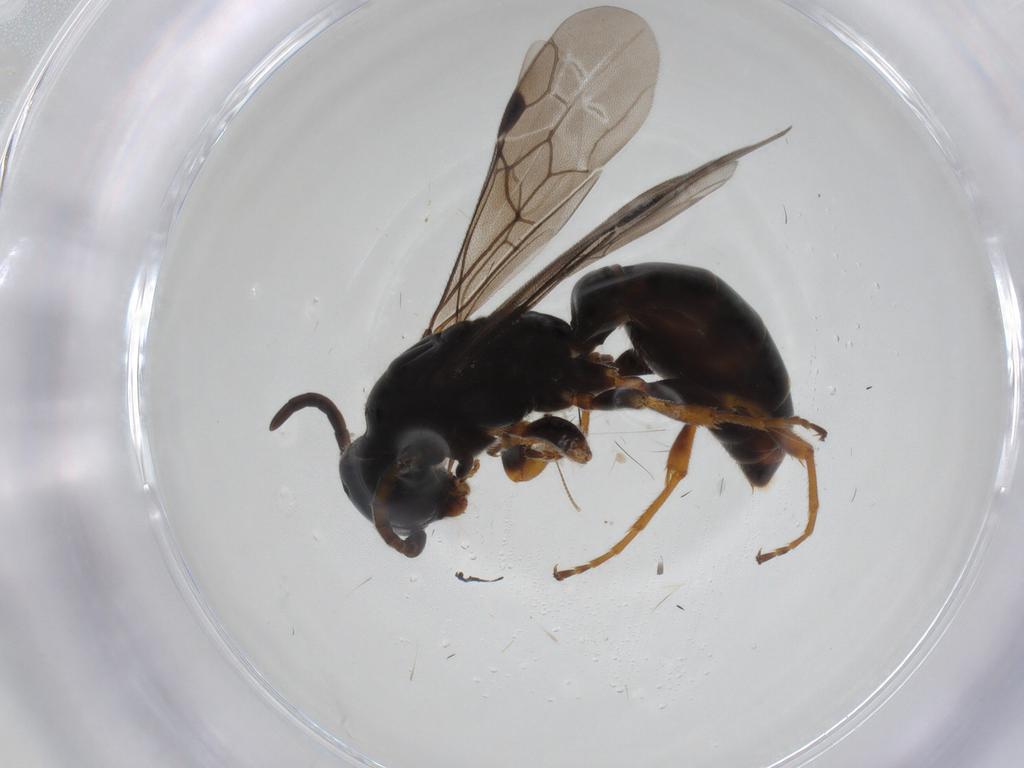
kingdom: Animalia
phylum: Arthropoda
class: Insecta
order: Hymenoptera
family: Sierolomorphidae
